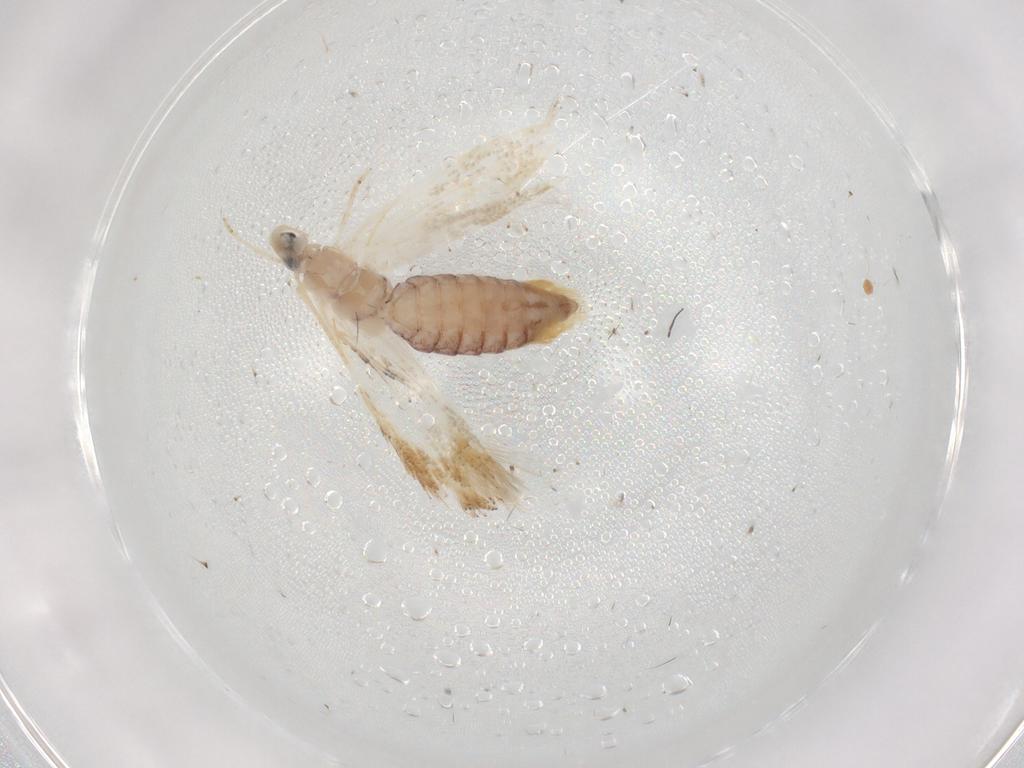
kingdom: Animalia
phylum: Arthropoda
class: Insecta
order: Lepidoptera
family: Bucculatricidae
